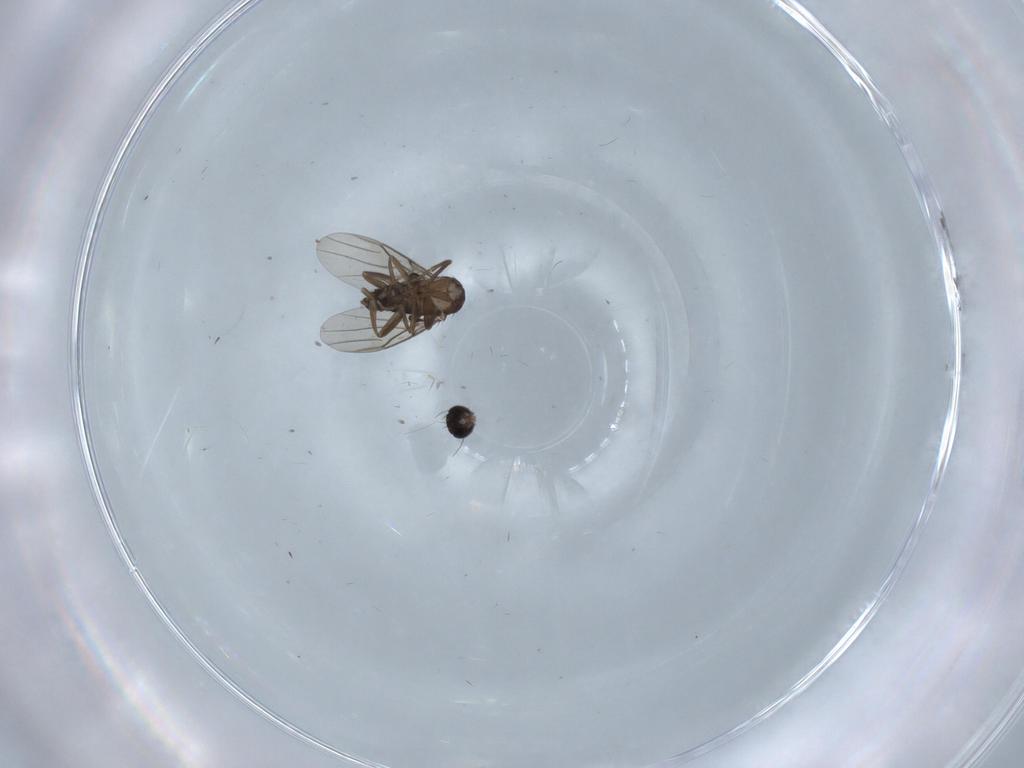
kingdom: Animalia
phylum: Arthropoda
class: Insecta
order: Diptera
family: Phoridae
